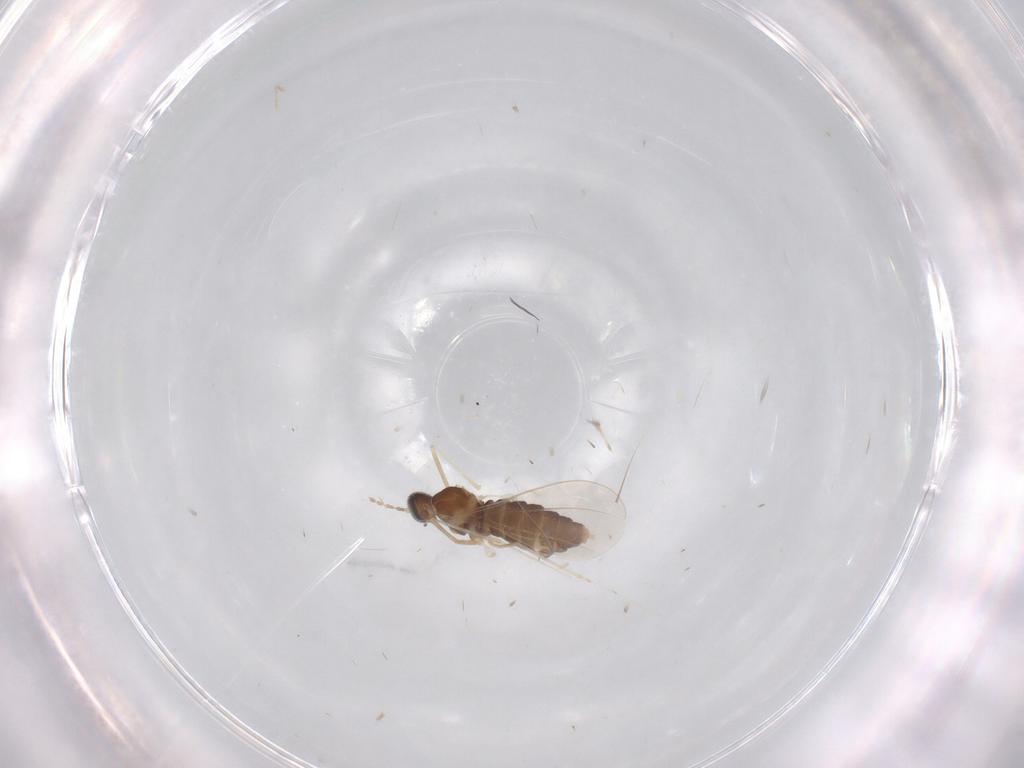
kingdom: Animalia
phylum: Arthropoda
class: Insecta
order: Diptera
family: Cecidomyiidae
